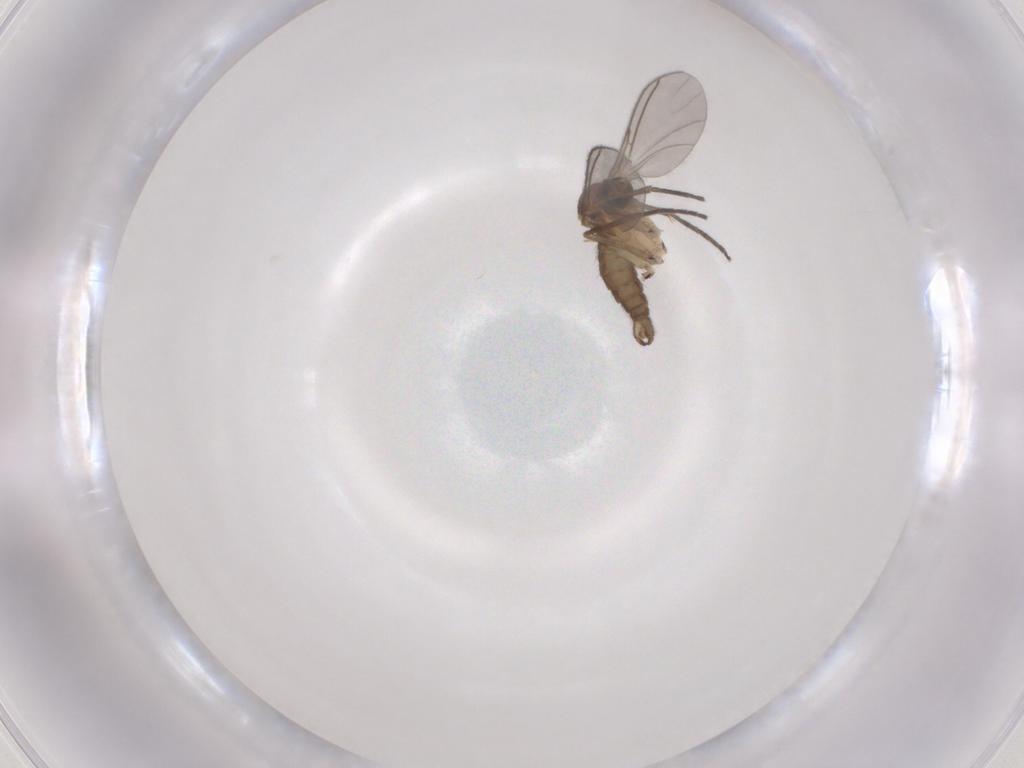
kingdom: Animalia
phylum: Arthropoda
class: Insecta
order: Diptera
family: Sciaridae
